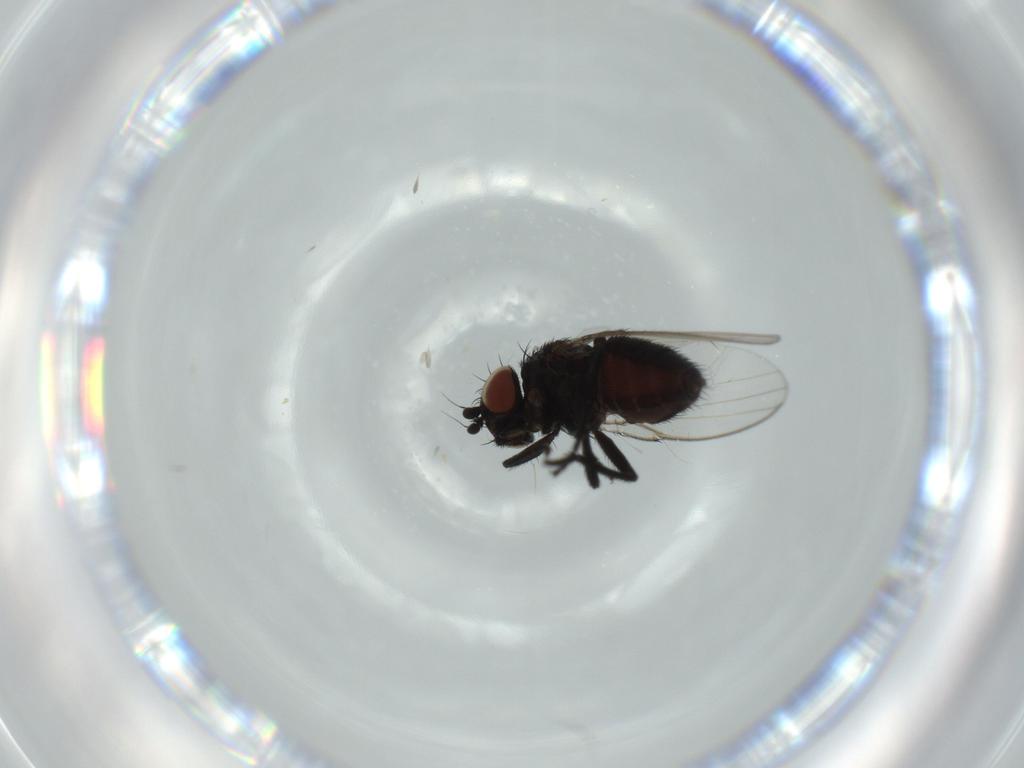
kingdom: Animalia
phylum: Arthropoda
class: Insecta
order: Diptera
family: Milichiidae
